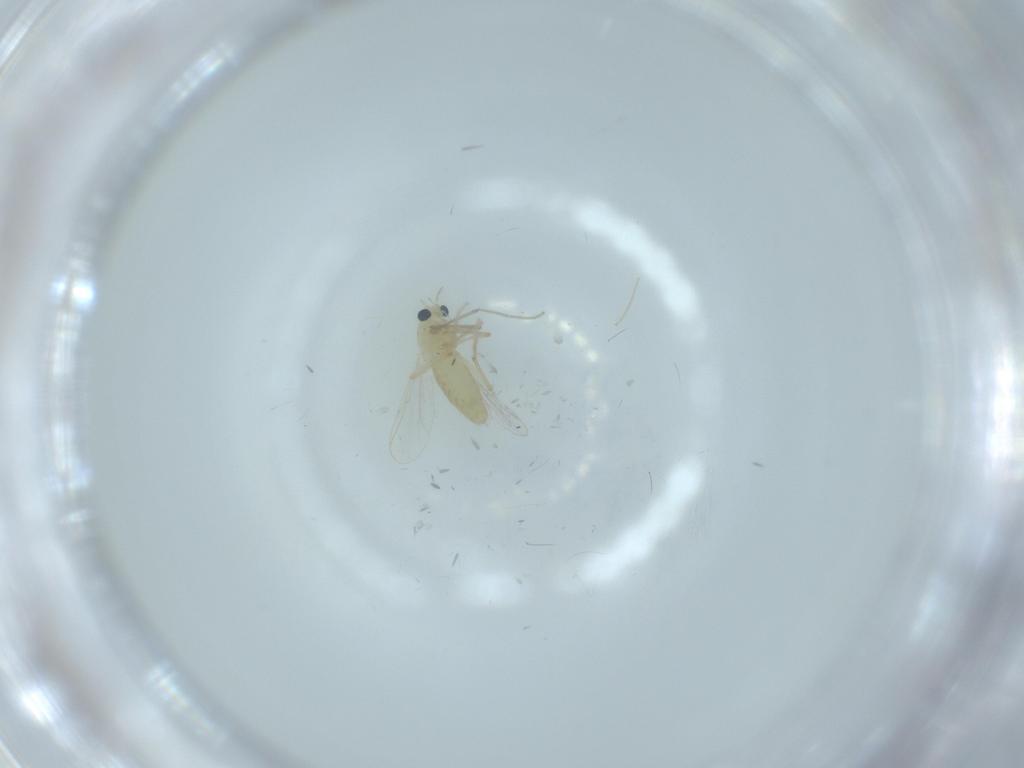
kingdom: Animalia
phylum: Arthropoda
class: Insecta
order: Diptera
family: Chironomidae
